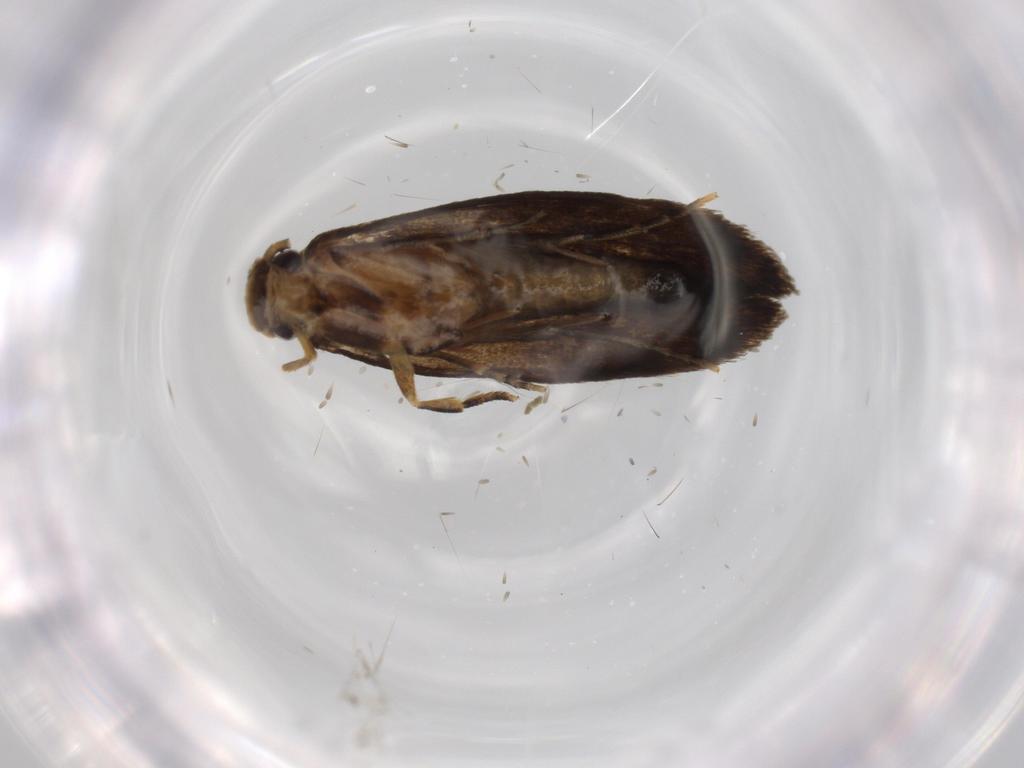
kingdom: Animalia
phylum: Arthropoda
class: Insecta
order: Lepidoptera
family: Tineidae
